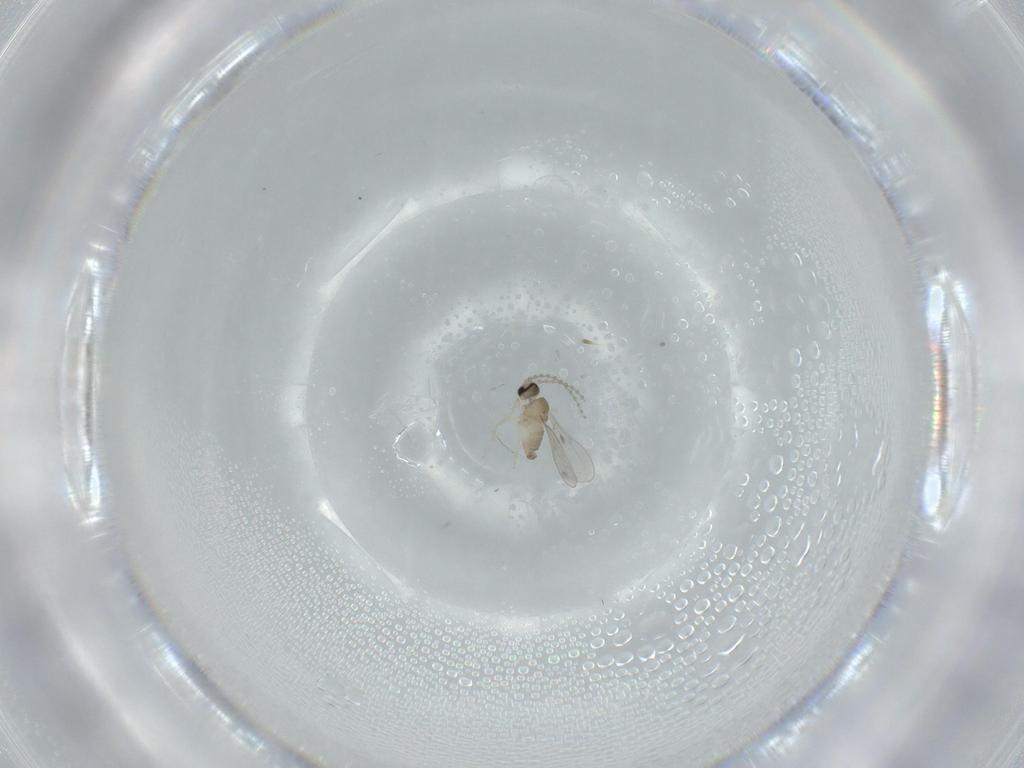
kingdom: Animalia
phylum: Arthropoda
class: Insecta
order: Diptera
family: Cecidomyiidae
